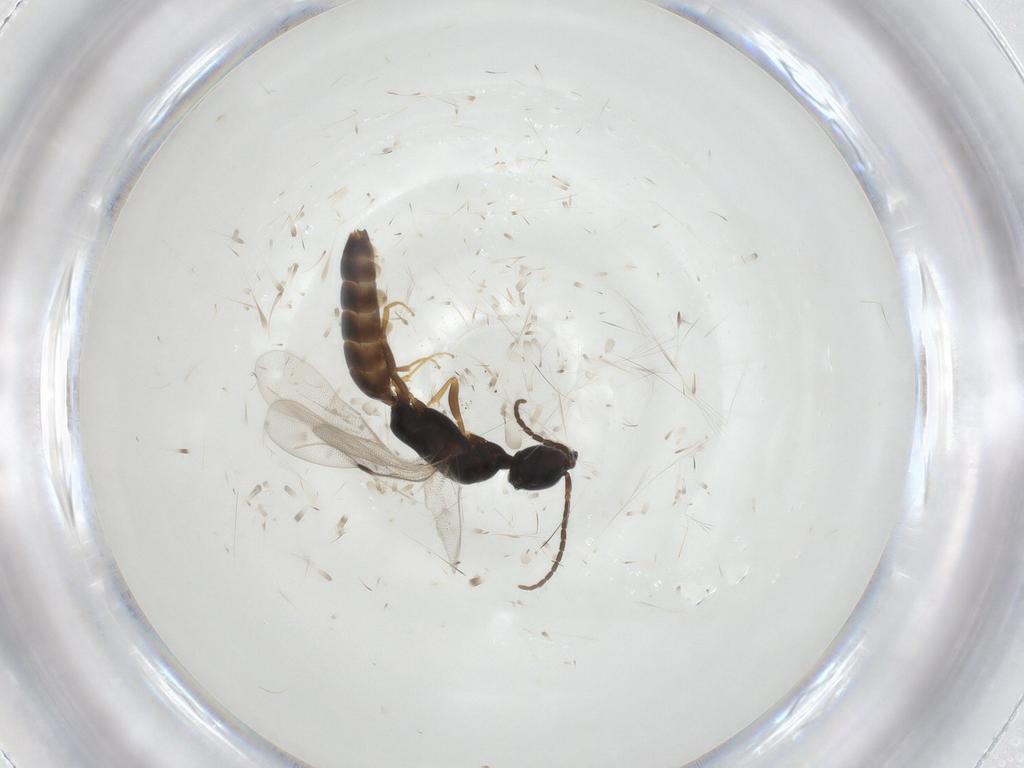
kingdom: Animalia
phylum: Arthropoda
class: Insecta
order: Hymenoptera
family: Bethylidae
